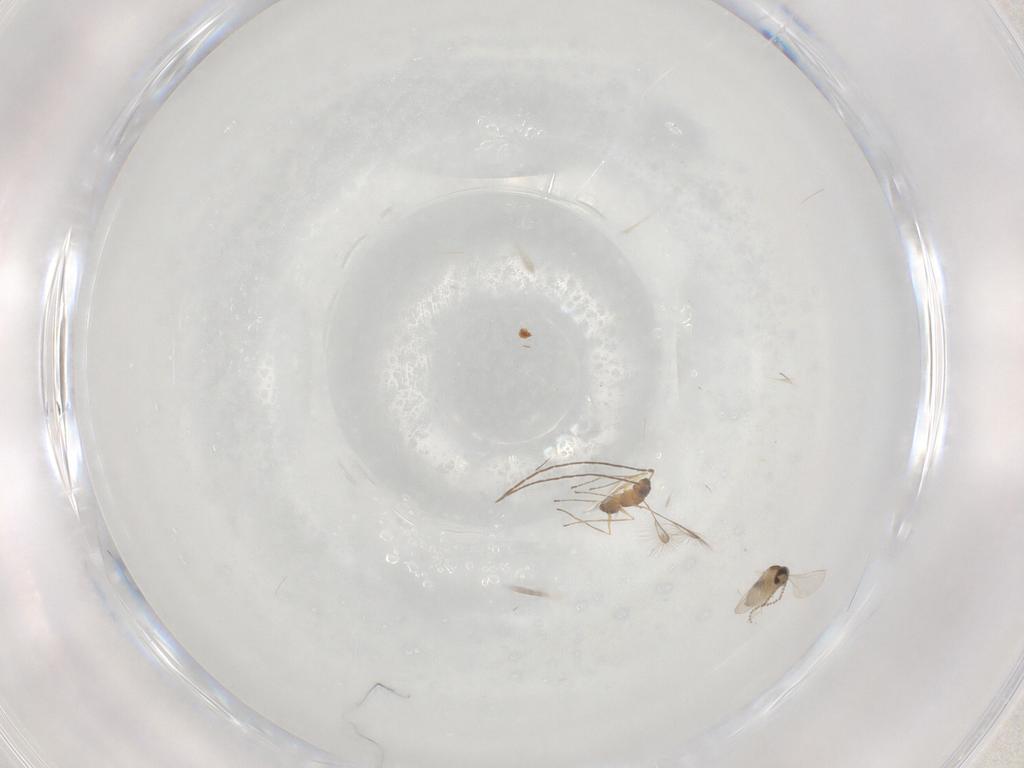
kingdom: Animalia
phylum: Arthropoda
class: Insecta
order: Diptera
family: Cecidomyiidae
